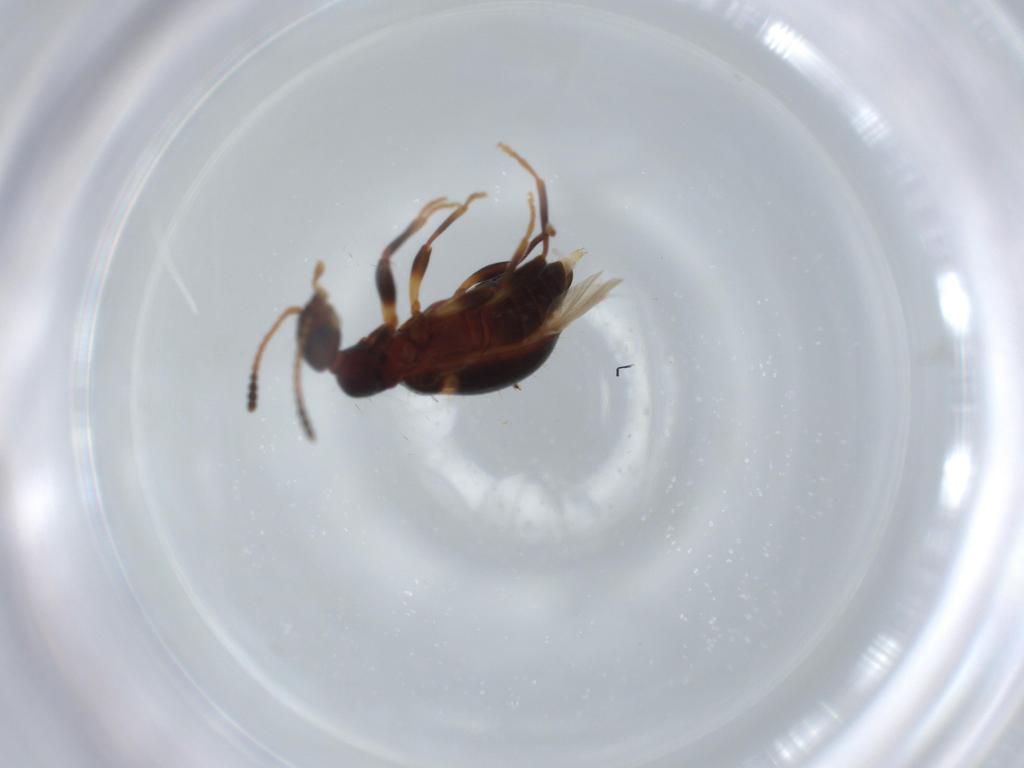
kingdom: Animalia
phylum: Arthropoda
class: Insecta
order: Coleoptera
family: Anthicidae
